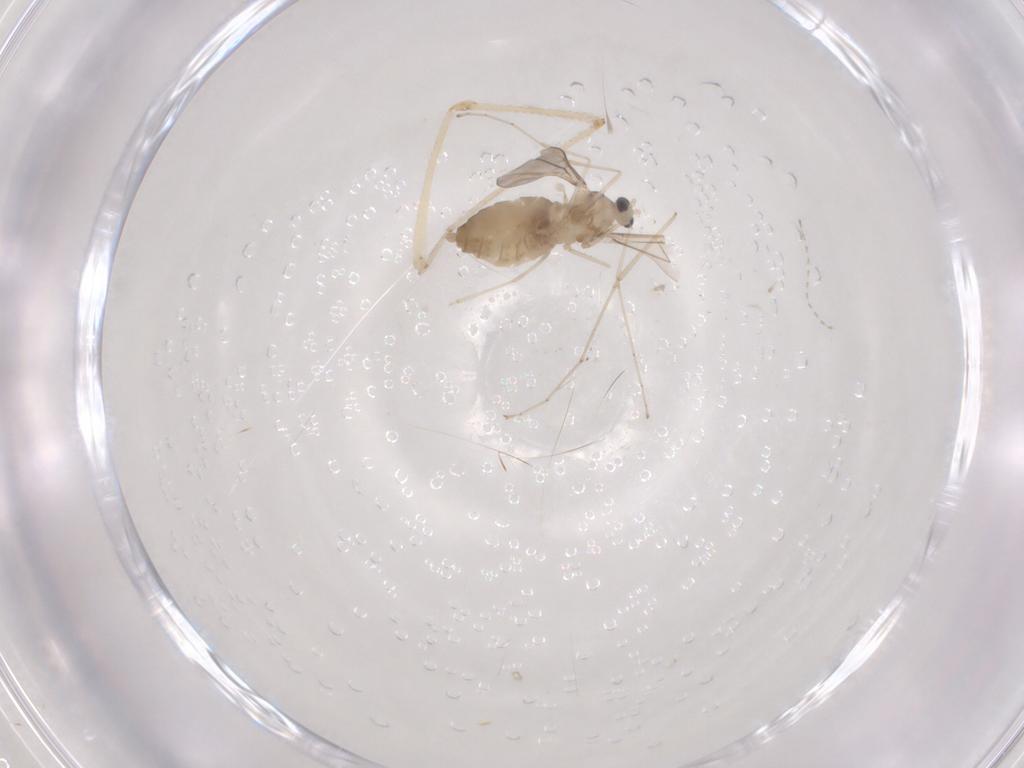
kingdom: Animalia
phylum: Arthropoda
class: Insecta
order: Diptera
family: Cecidomyiidae
